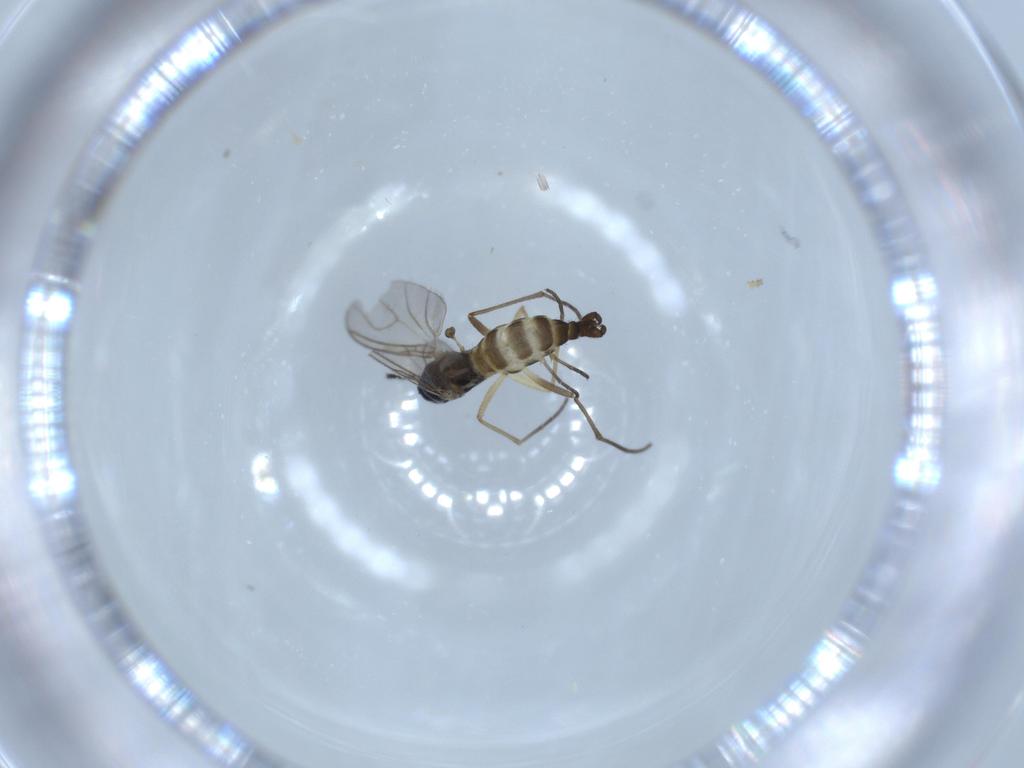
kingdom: Animalia
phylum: Arthropoda
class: Insecta
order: Diptera
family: Sciaridae
